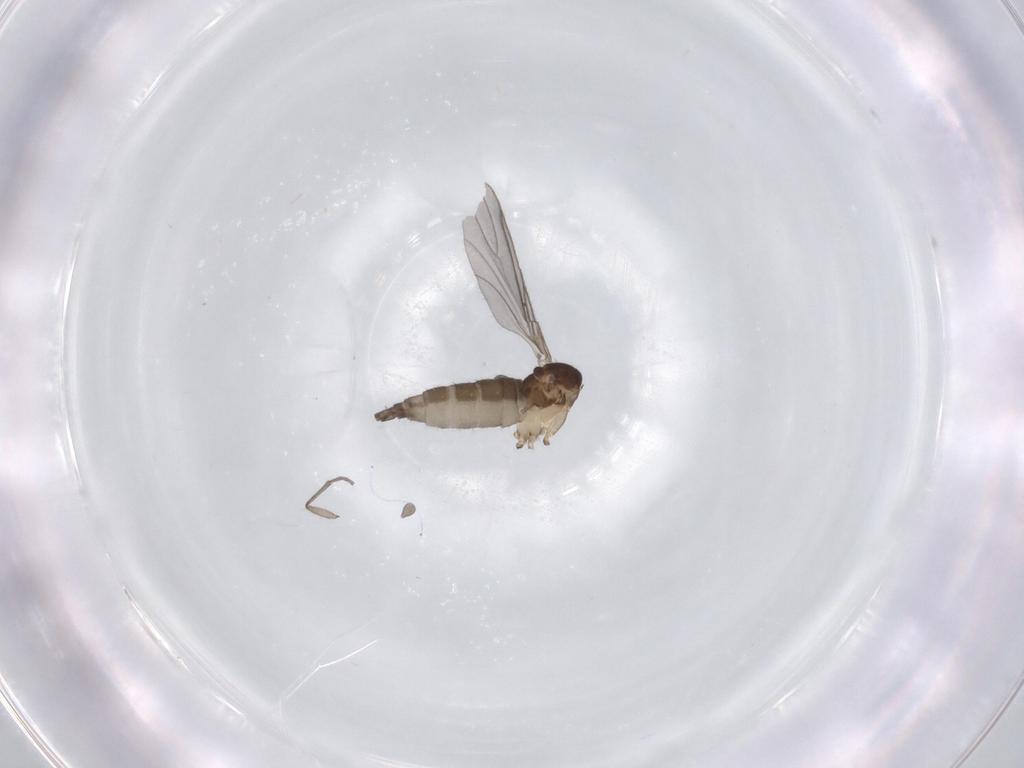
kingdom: Animalia
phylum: Arthropoda
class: Insecta
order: Diptera
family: Sciaridae
